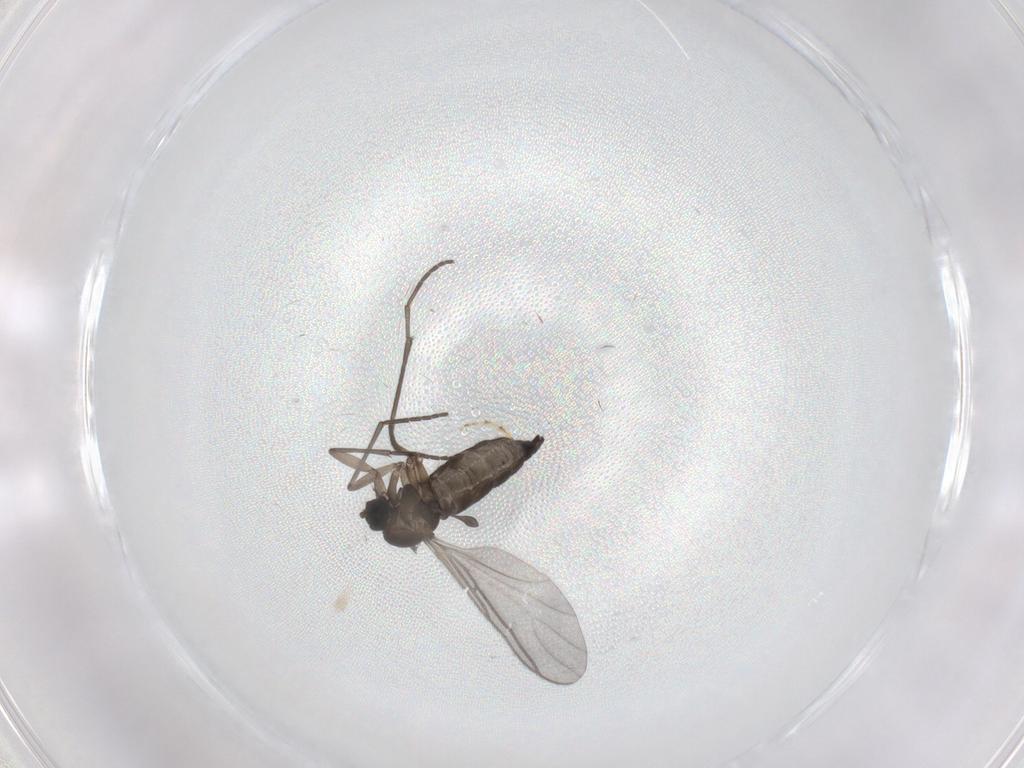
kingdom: Animalia
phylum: Arthropoda
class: Insecta
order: Diptera
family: Sciaridae
